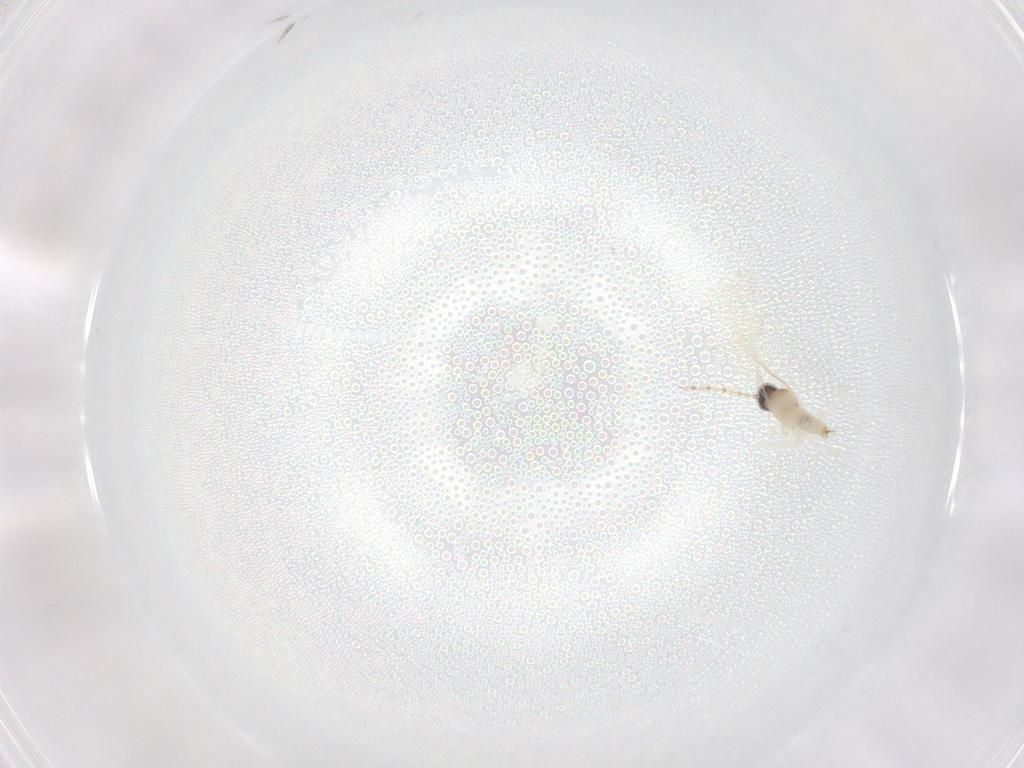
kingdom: Animalia
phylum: Arthropoda
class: Insecta
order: Diptera
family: Cecidomyiidae
